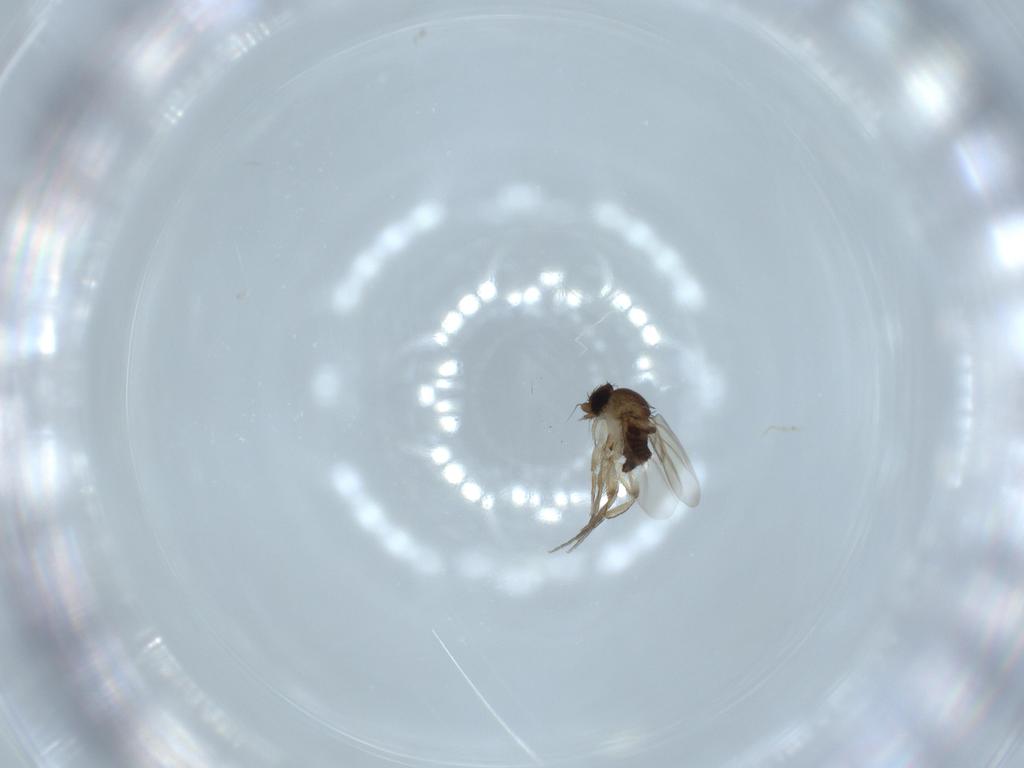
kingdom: Animalia
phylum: Arthropoda
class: Insecta
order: Diptera
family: Phoridae
